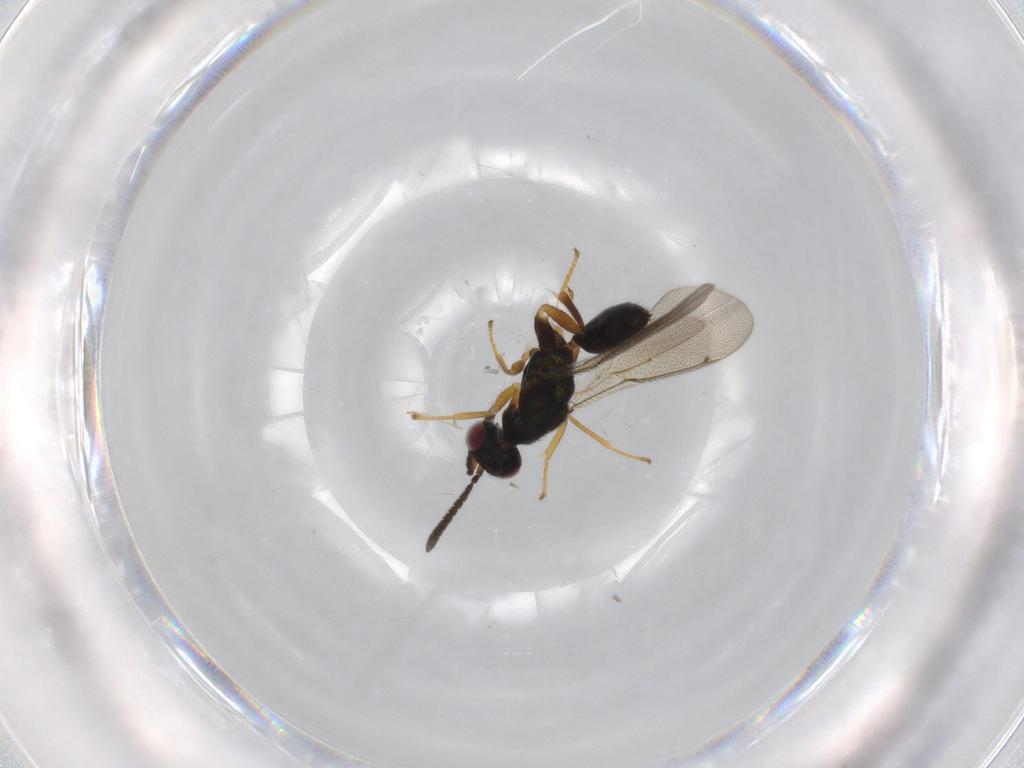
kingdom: Animalia
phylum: Arthropoda
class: Insecta
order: Hymenoptera
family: Torymidae
